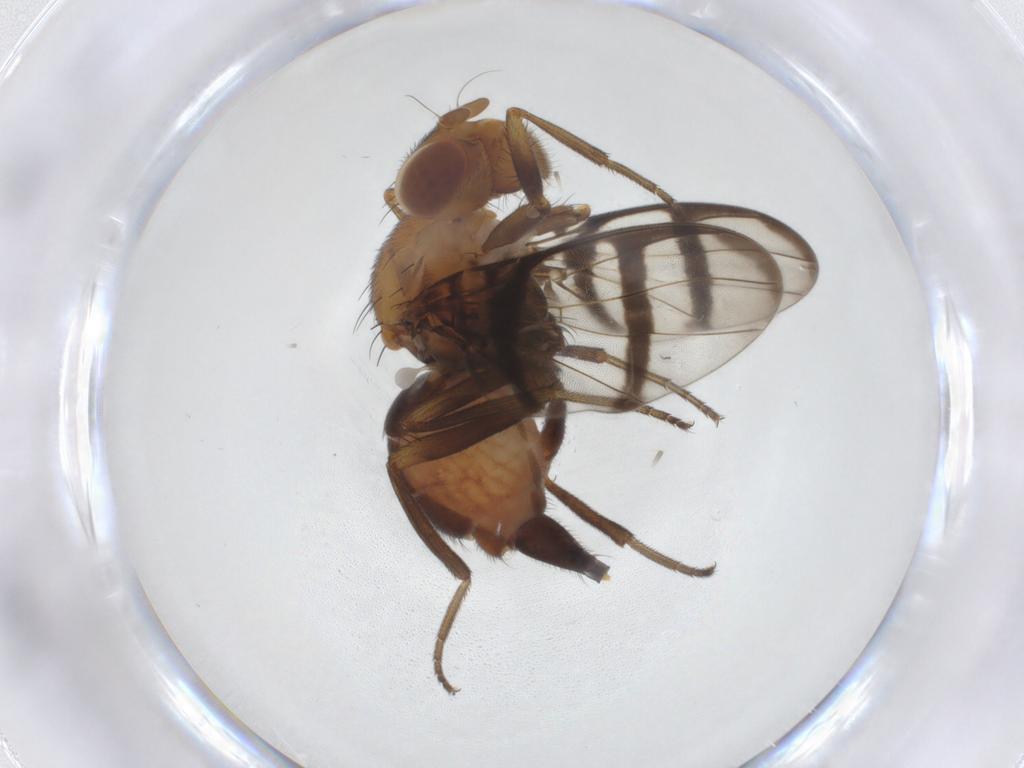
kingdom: Animalia
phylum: Arthropoda
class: Insecta
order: Diptera
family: Richardiidae
